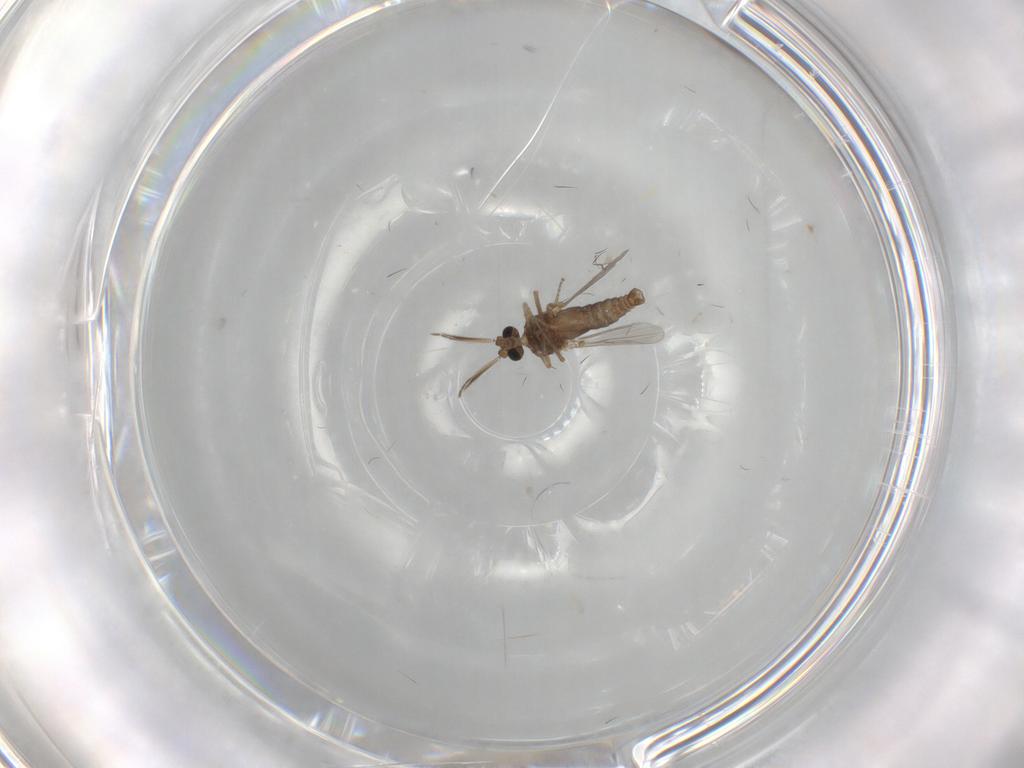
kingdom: Animalia
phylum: Arthropoda
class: Insecta
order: Diptera
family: Ceratopogonidae
